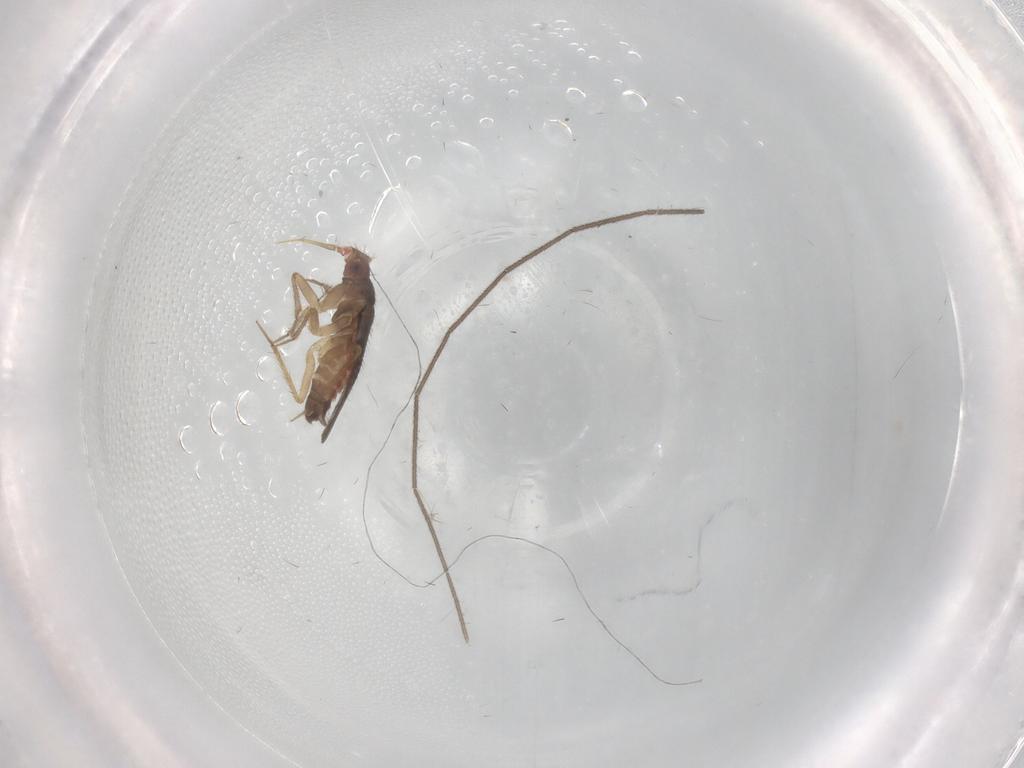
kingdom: Animalia
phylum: Arthropoda
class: Insecta
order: Hemiptera
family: Ceratocombidae
